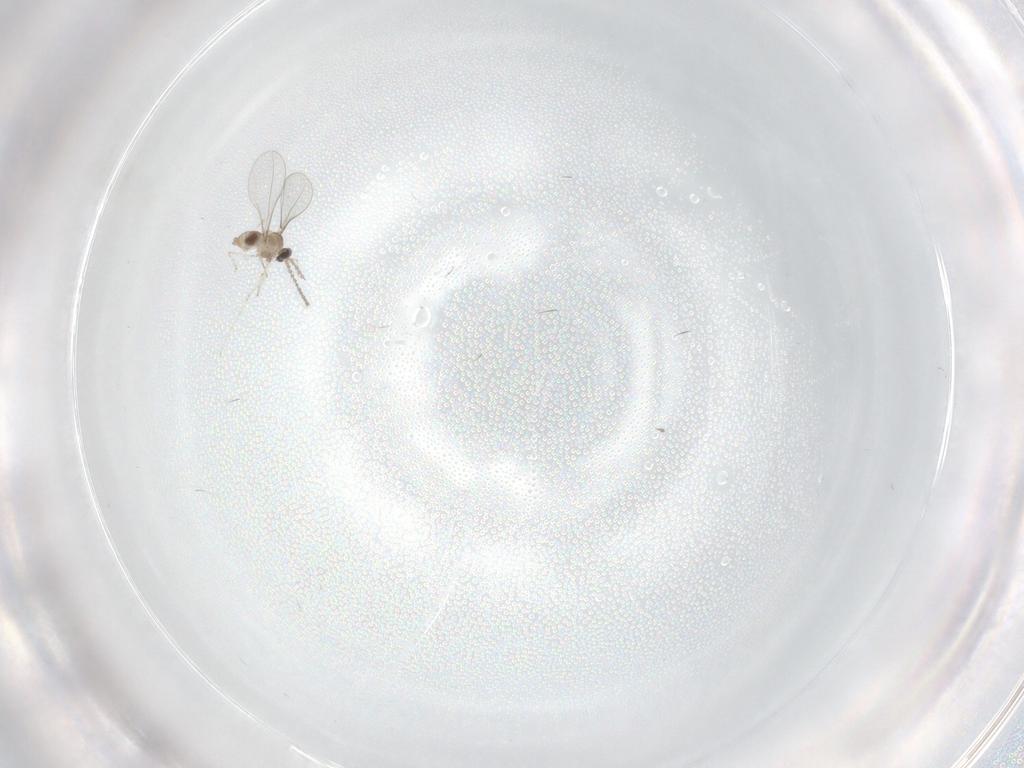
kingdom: Animalia
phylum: Arthropoda
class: Insecta
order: Diptera
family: Cecidomyiidae
